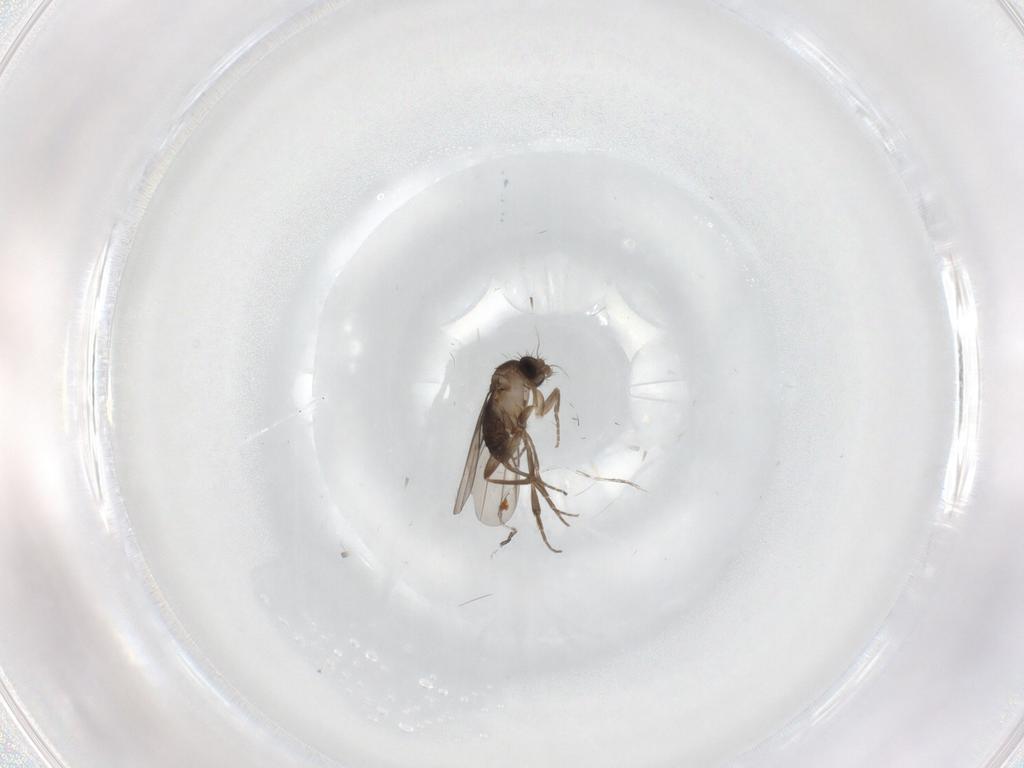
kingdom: Animalia
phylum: Arthropoda
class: Insecta
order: Diptera
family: Phoridae
